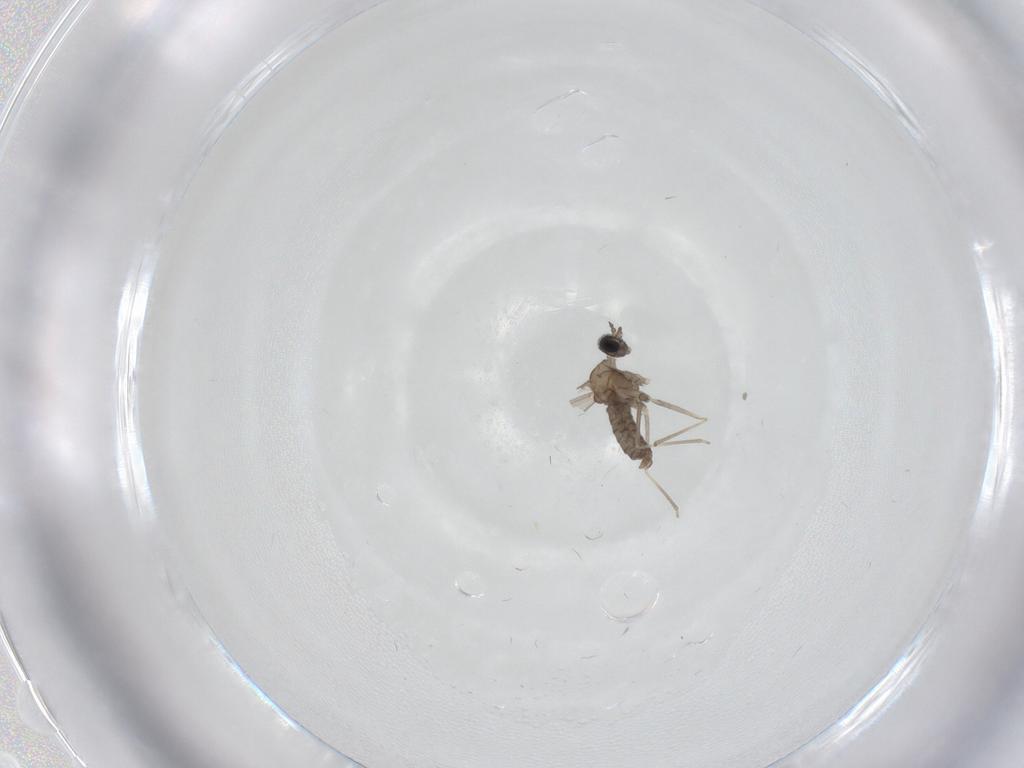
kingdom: Animalia
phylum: Arthropoda
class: Insecta
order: Diptera
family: Cecidomyiidae
